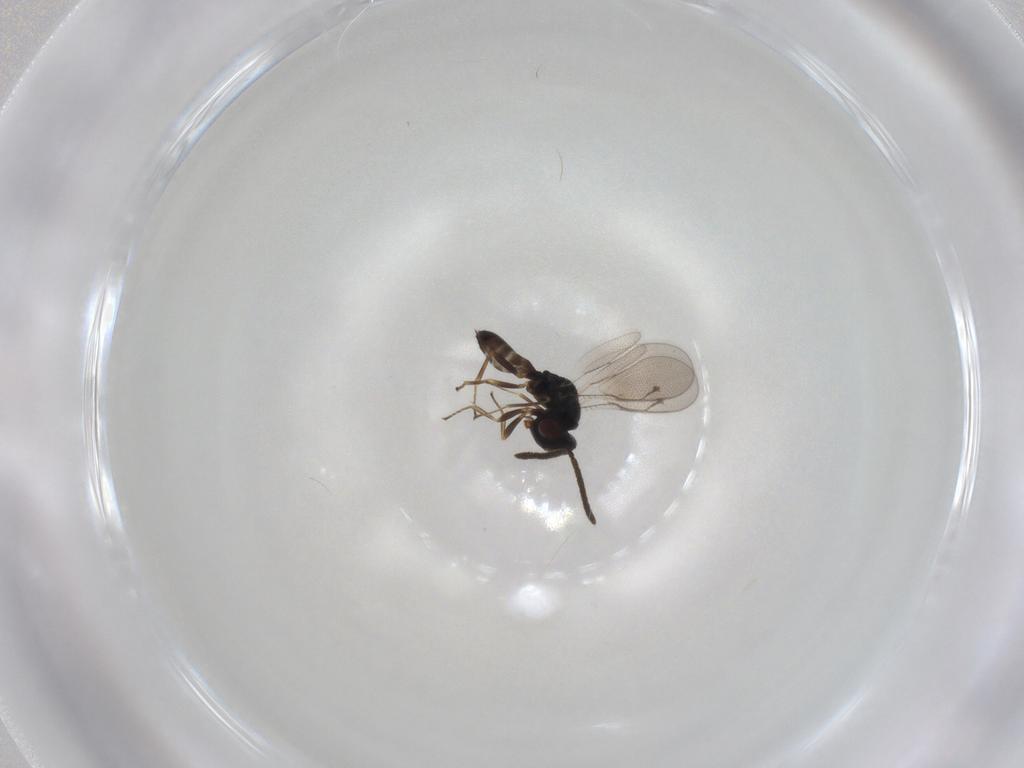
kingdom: Animalia
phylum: Arthropoda
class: Insecta
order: Hymenoptera
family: Pteromalidae
